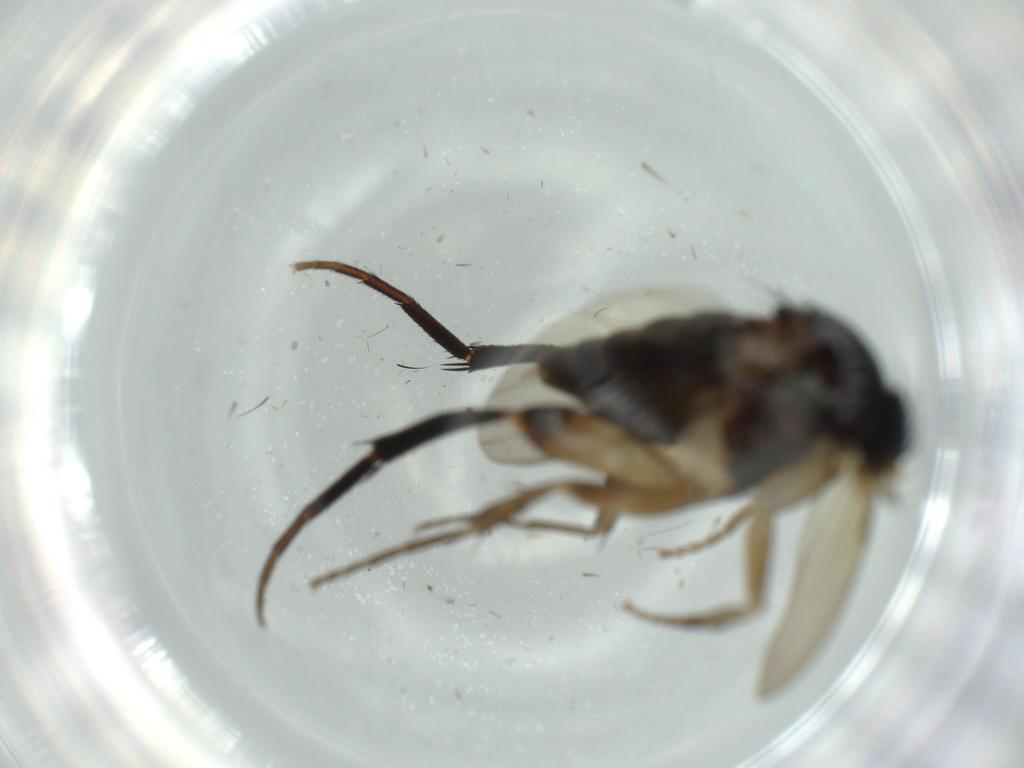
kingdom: Animalia
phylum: Arthropoda
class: Insecta
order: Diptera
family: Phoridae
